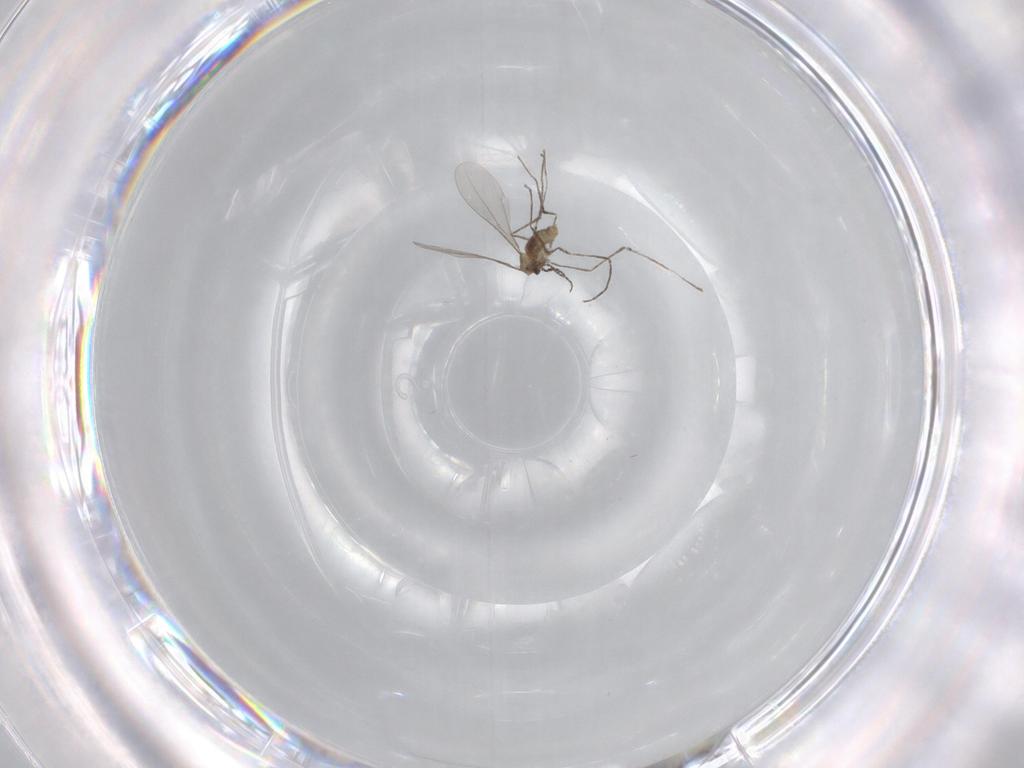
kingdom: Animalia
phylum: Arthropoda
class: Insecta
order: Diptera
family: Cecidomyiidae
